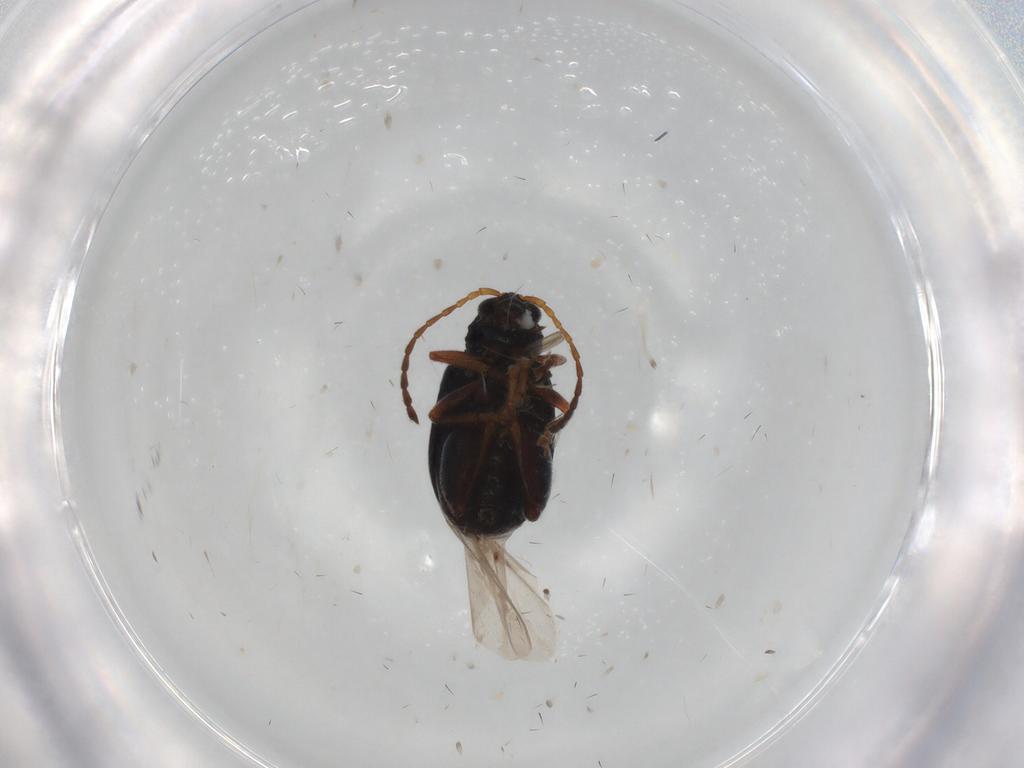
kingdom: Animalia
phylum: Arthropoda
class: Insecta
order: Coleoptera
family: Chrysomelidae
